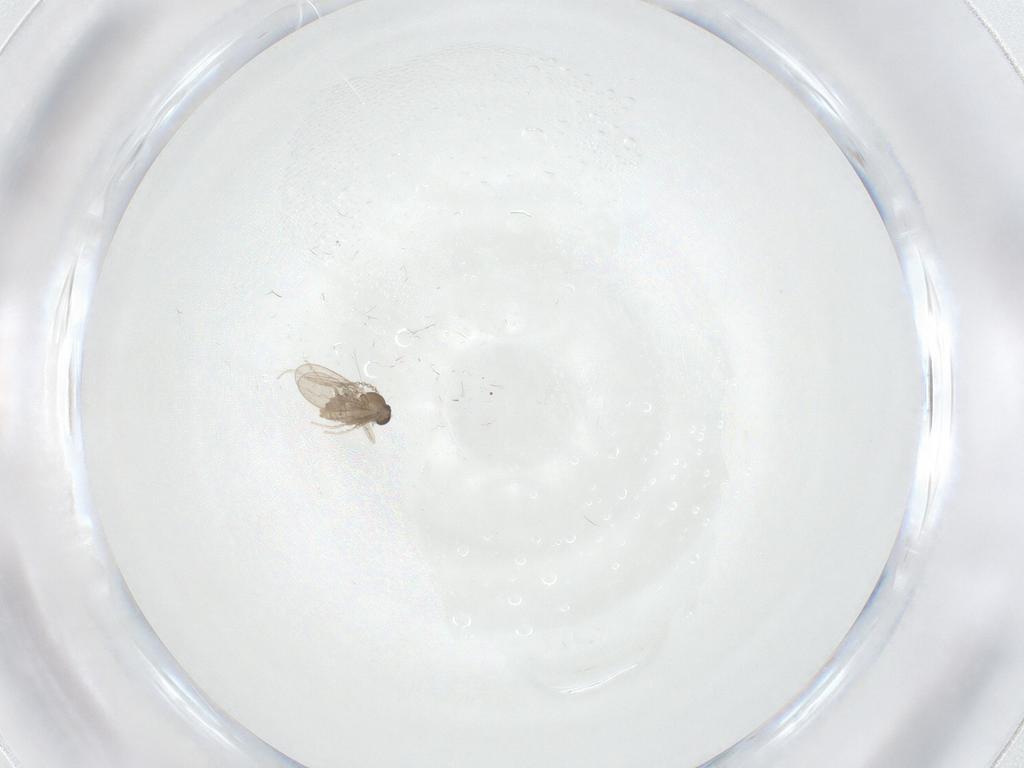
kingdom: Animalia
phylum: Arthropoda
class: Insecta
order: Diptera
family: Cecidomyiidae
